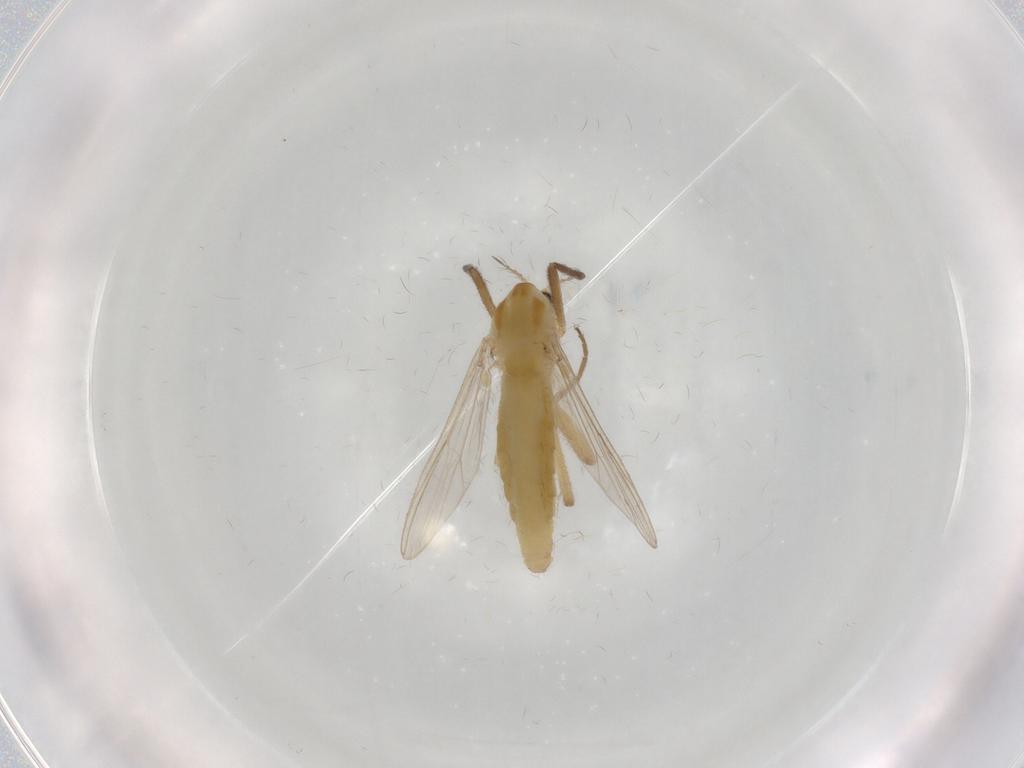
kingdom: Animalia
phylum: Arthropoda
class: Insecta
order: Diptera
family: Chironomidae
